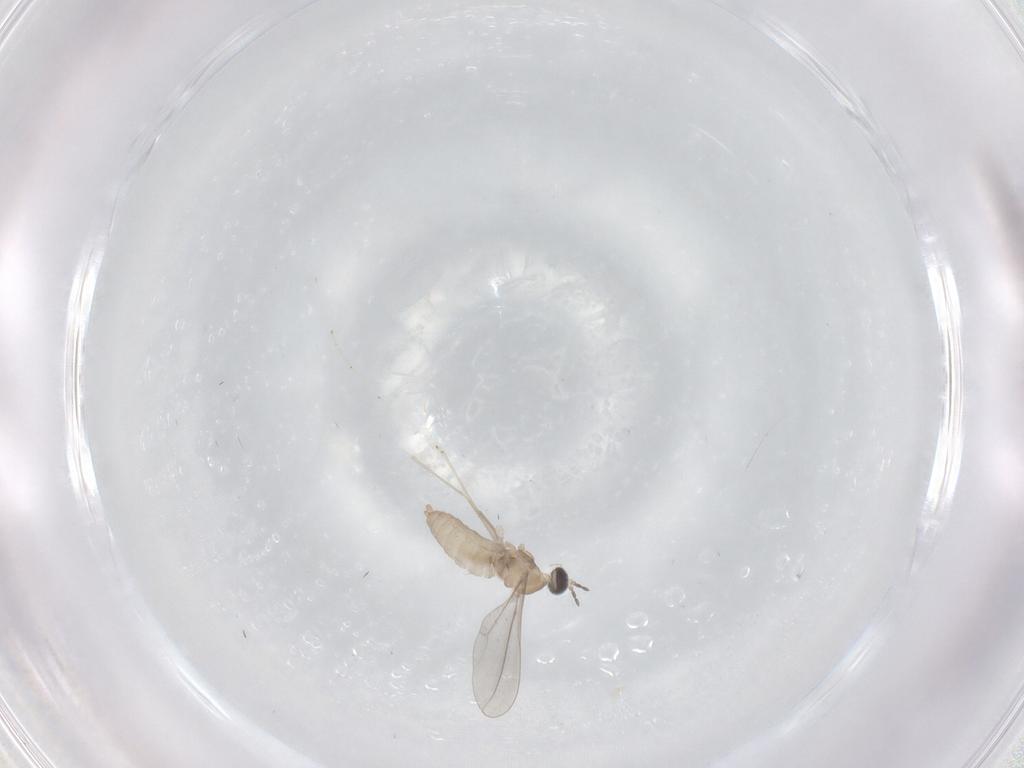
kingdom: Animalia
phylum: Arthropoda
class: Insecta
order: Diptera
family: Cecidomyiidae
